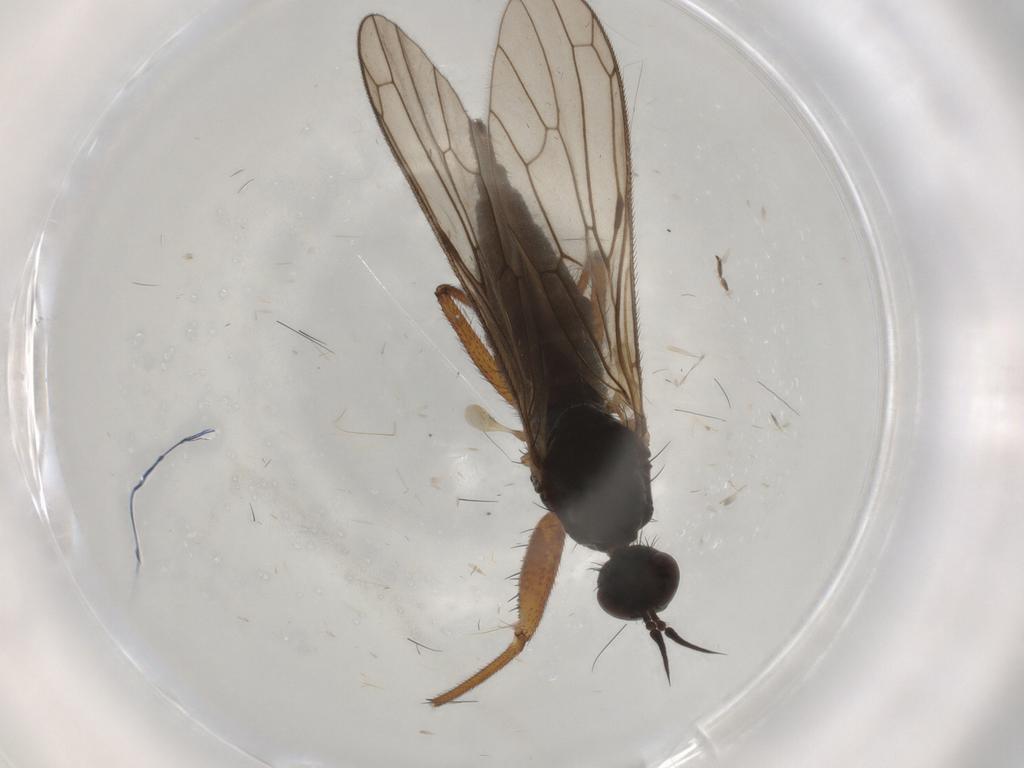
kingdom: Animalia
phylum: Arthropoda
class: Insecta
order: Diptera
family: Empididae
